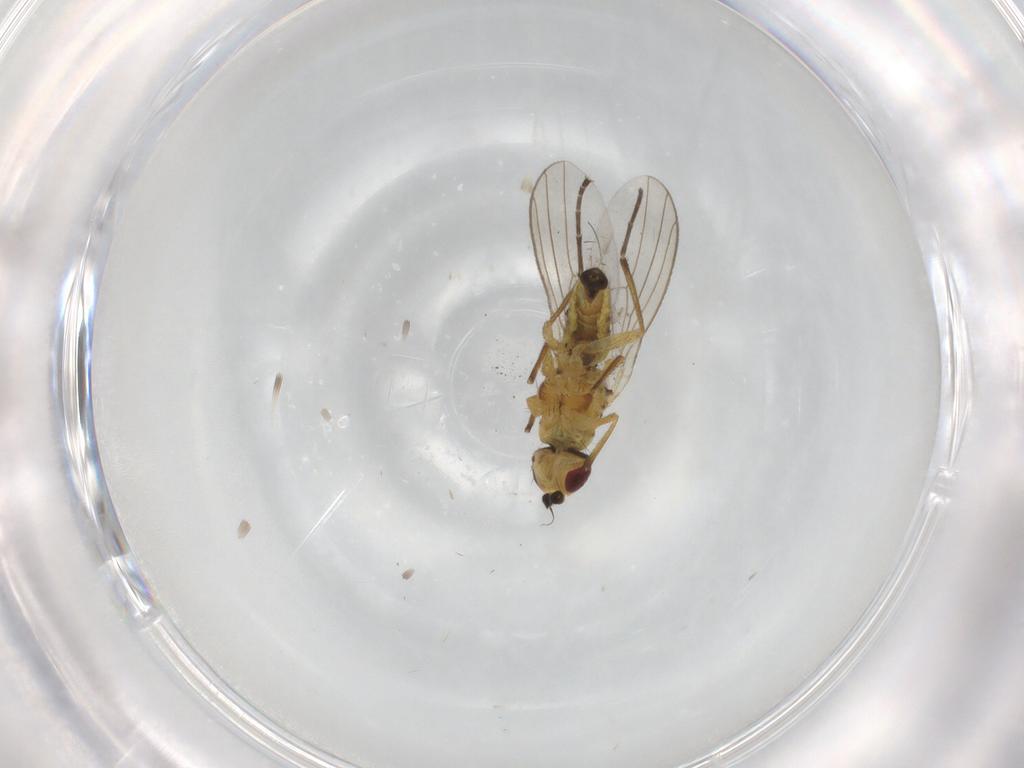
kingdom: Animalia
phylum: Arthropoda
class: Insecta
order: Diptera
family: Agromyzidae
